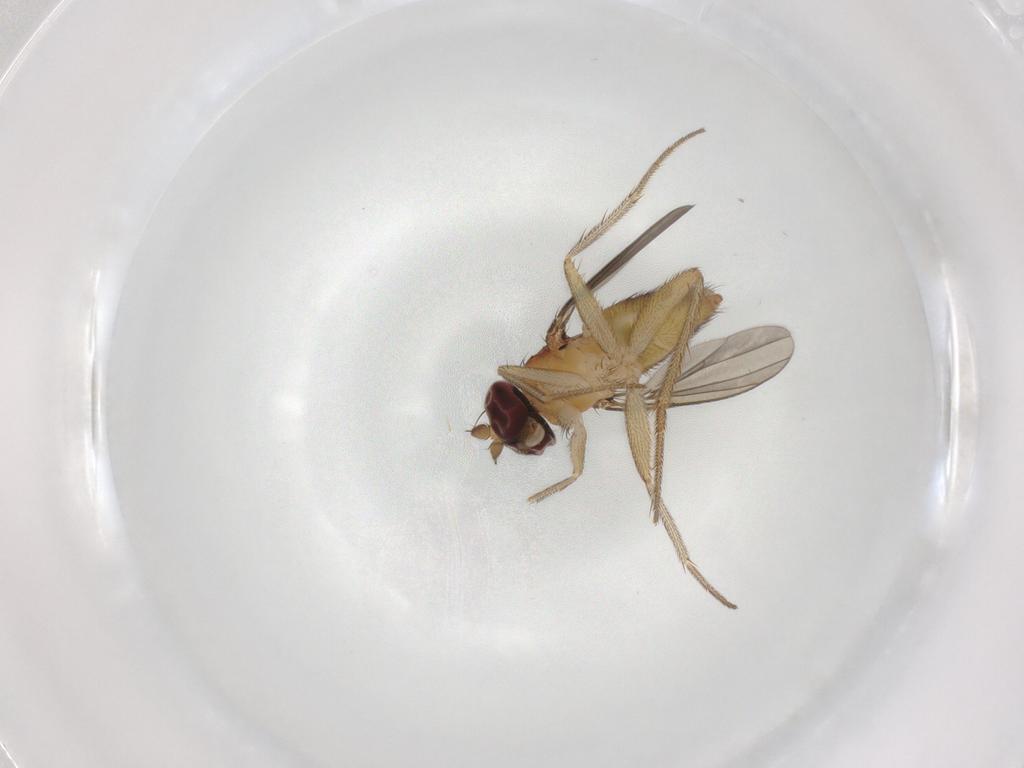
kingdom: Animalia
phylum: Arthropoda
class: Insecta
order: Diptera
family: Dolichopodidae
